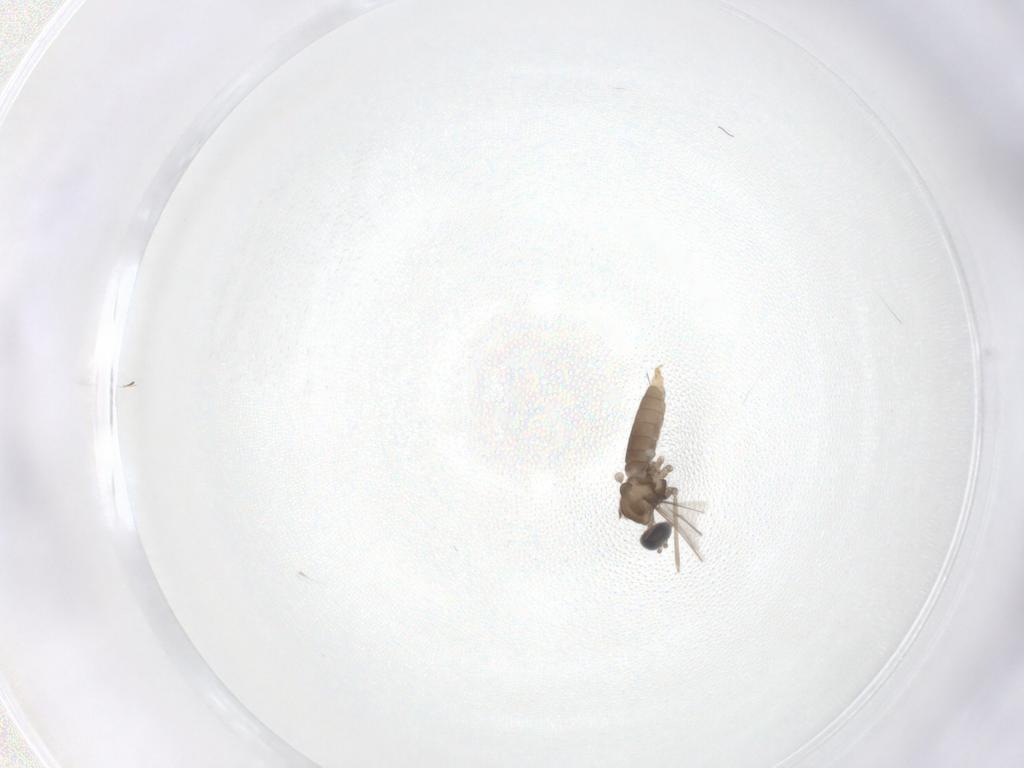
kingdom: Animalia
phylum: Arthropoda
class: Insecta
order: Diptera
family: Cecidomyiidae
